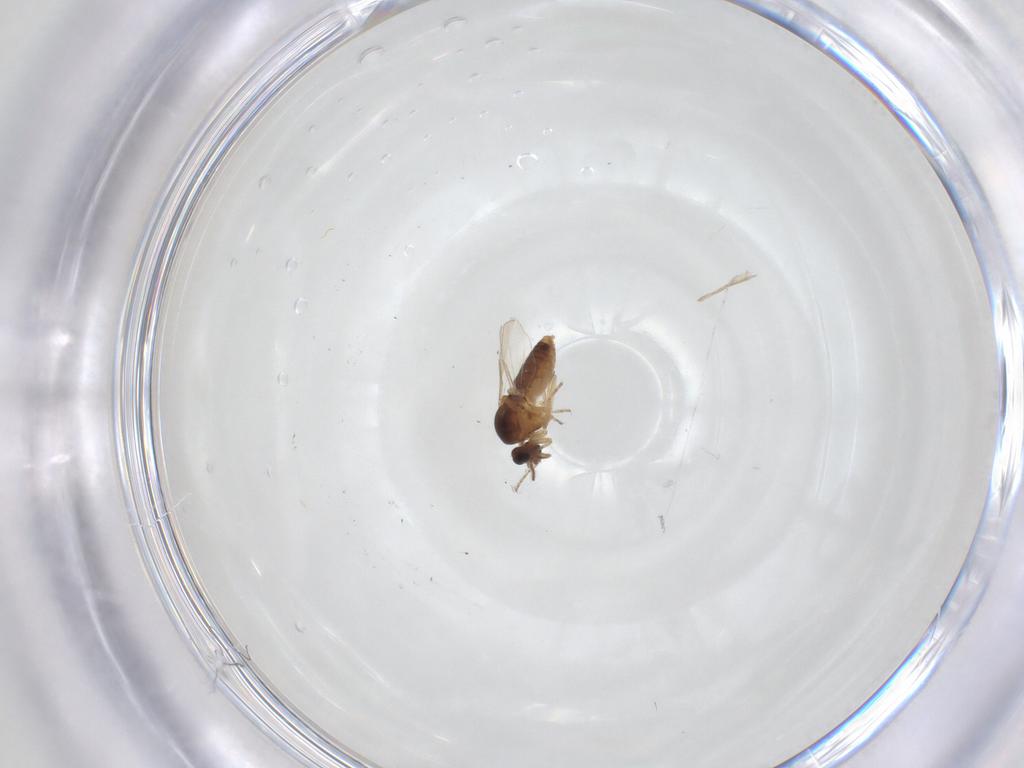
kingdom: Animalia
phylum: Arthropoda
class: Insecta
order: Diptera
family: Ceratopogonidae
